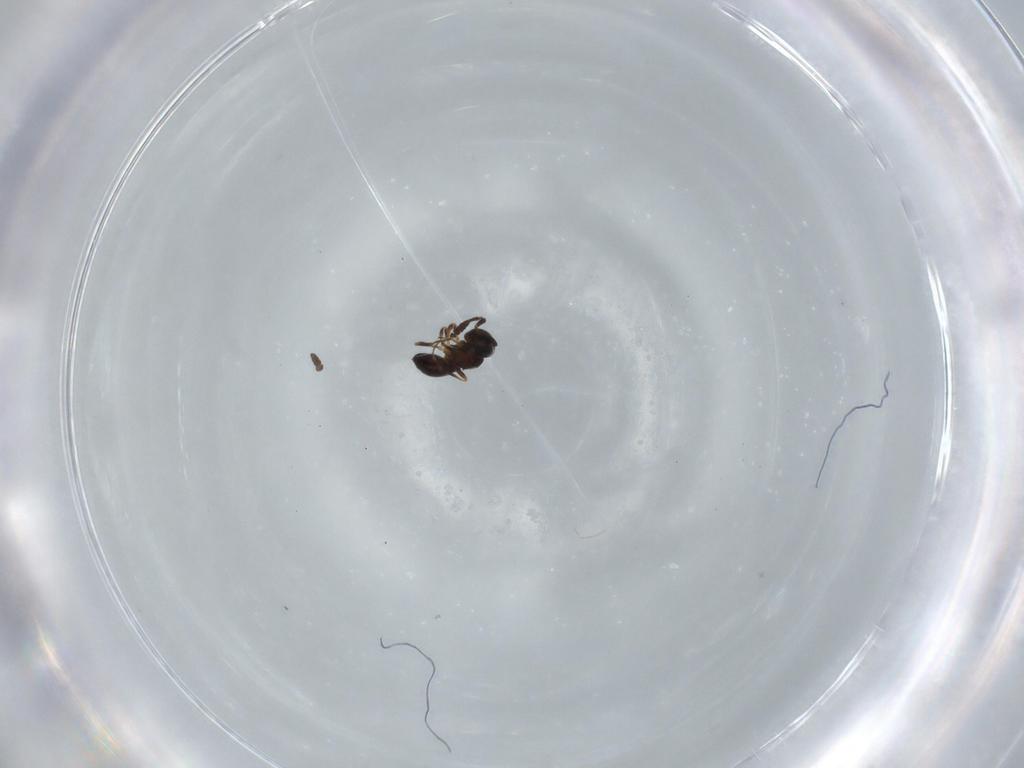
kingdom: Animalia
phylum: Arthropoda
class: Insecta
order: Hymenoptera
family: Scelionidae
